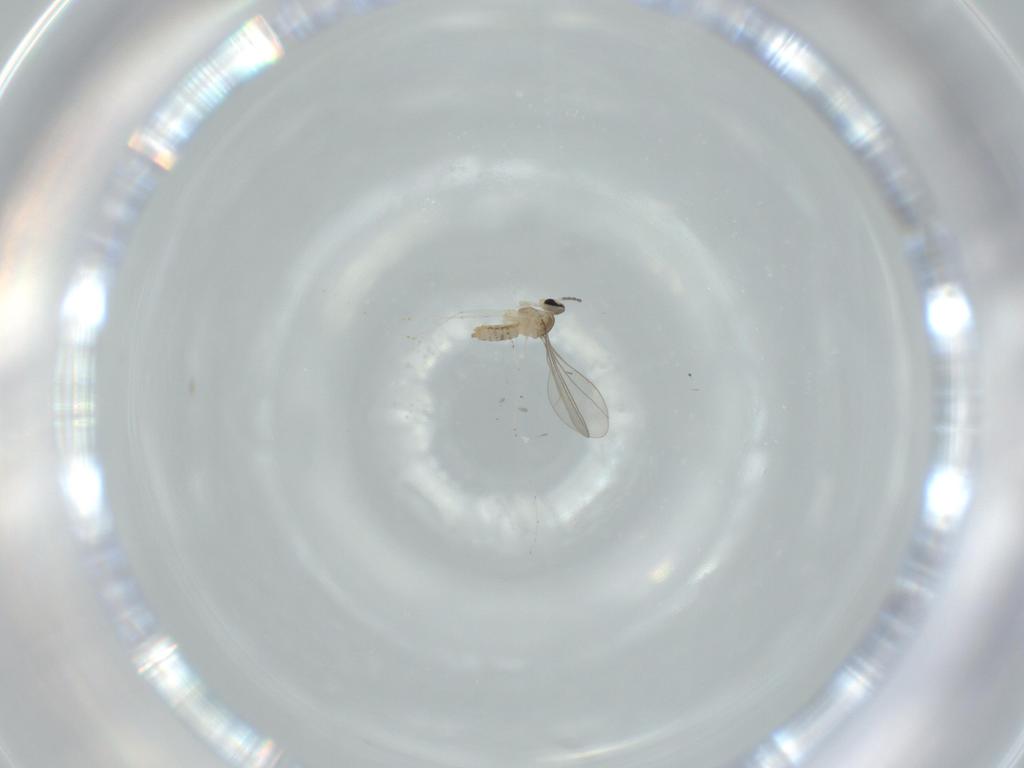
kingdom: Animalia
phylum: Arthropoda
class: Insecta
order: Diptera
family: Cecidomyiidae
